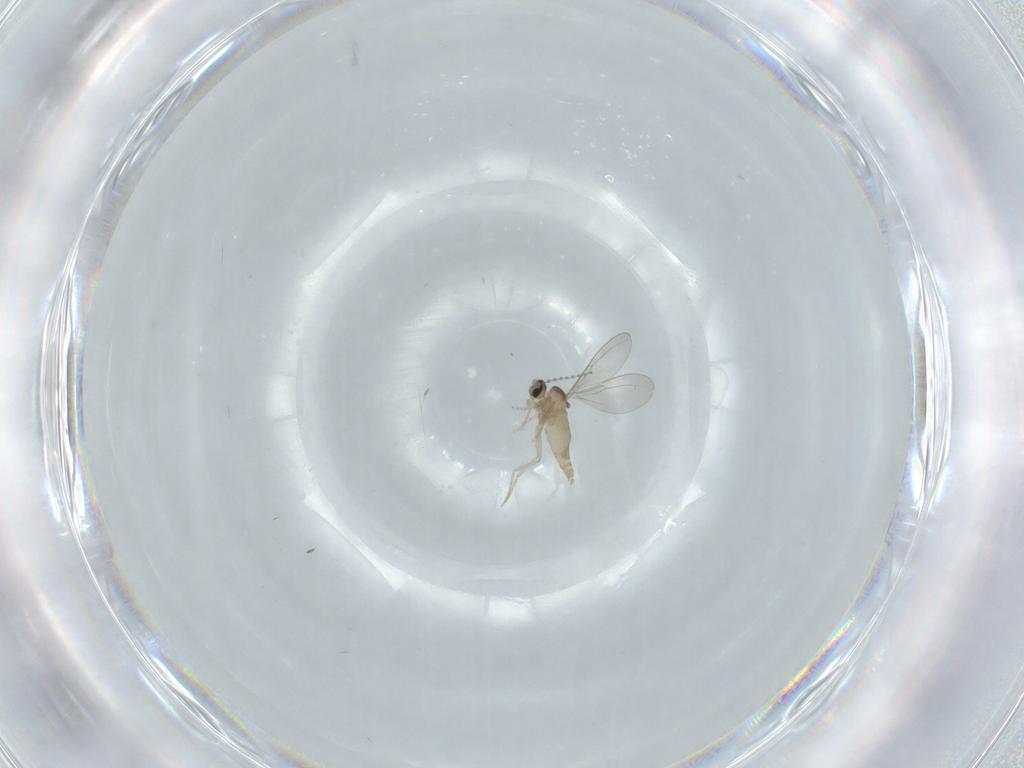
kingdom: Animalia
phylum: Arthropoda
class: Insecta
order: Diptera
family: Cecidomyiidae
